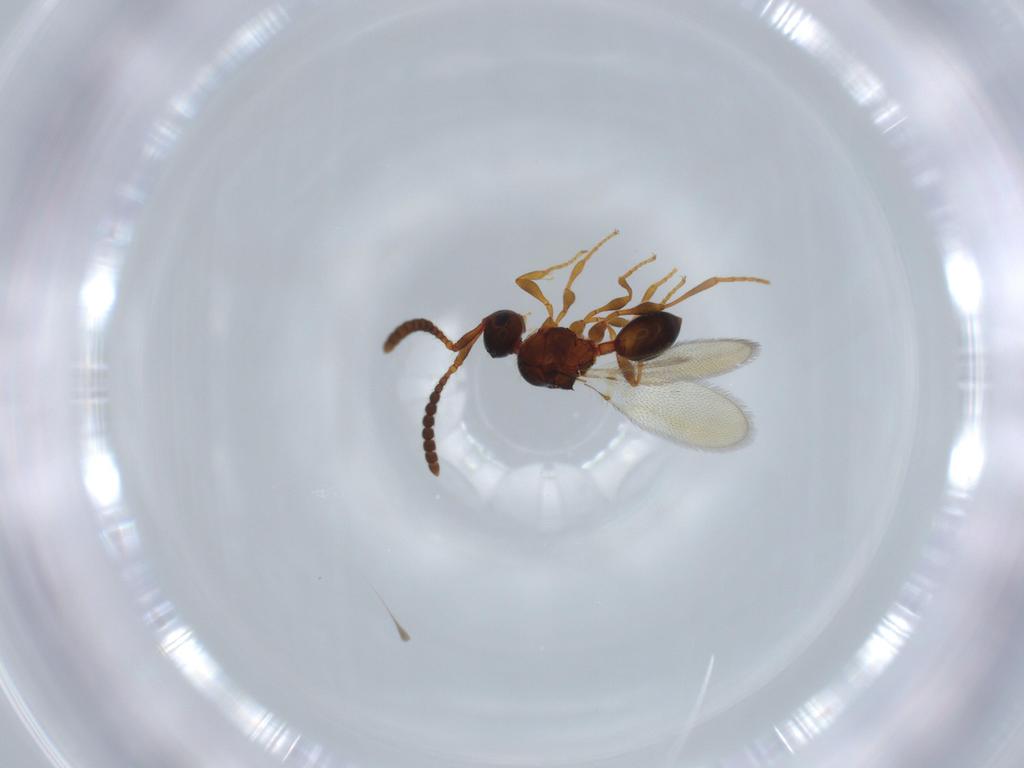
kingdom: Animalia
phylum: Arthropoda
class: Insecta
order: Hymenoptera
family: Diapriidae
